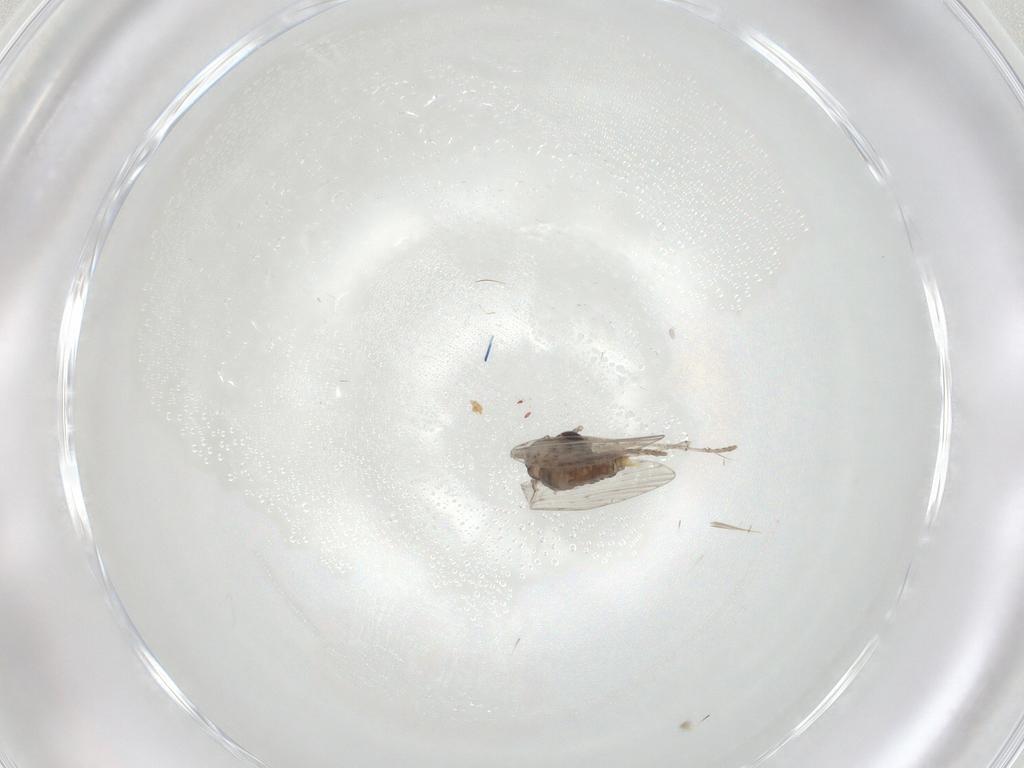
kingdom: Animalia
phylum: Arthropoda
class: Insecta
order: Diptera
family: Psychodidae
